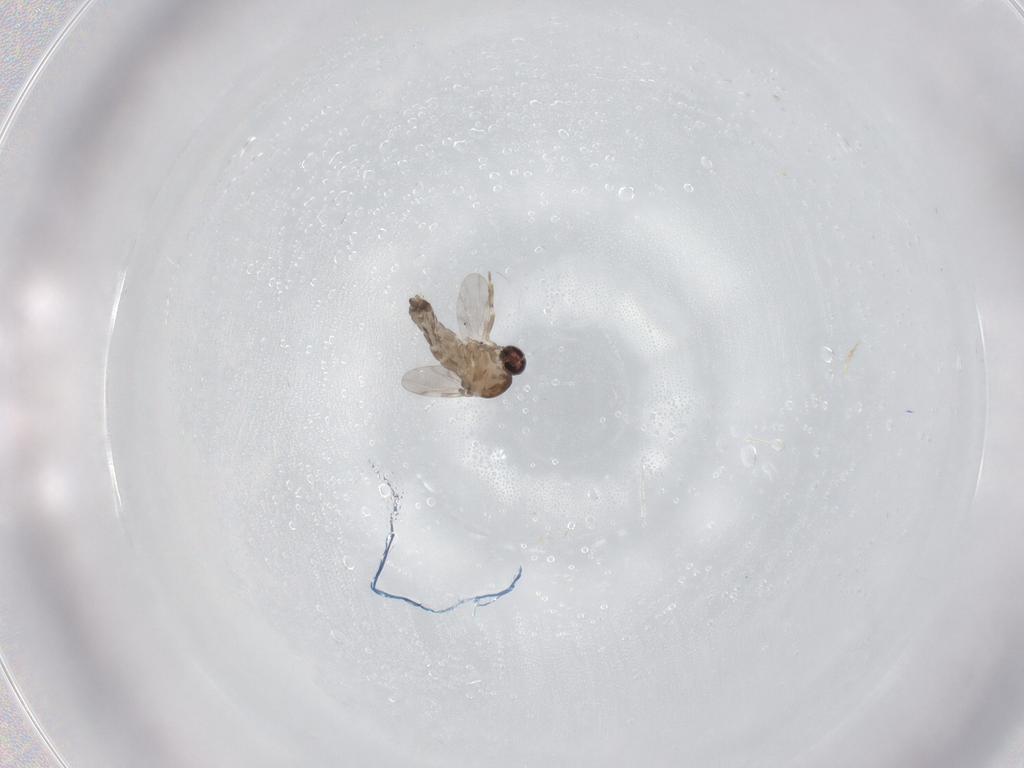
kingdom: Animalia
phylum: Arthropoda
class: Insecta
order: Diptera
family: Ceratopogonidae
